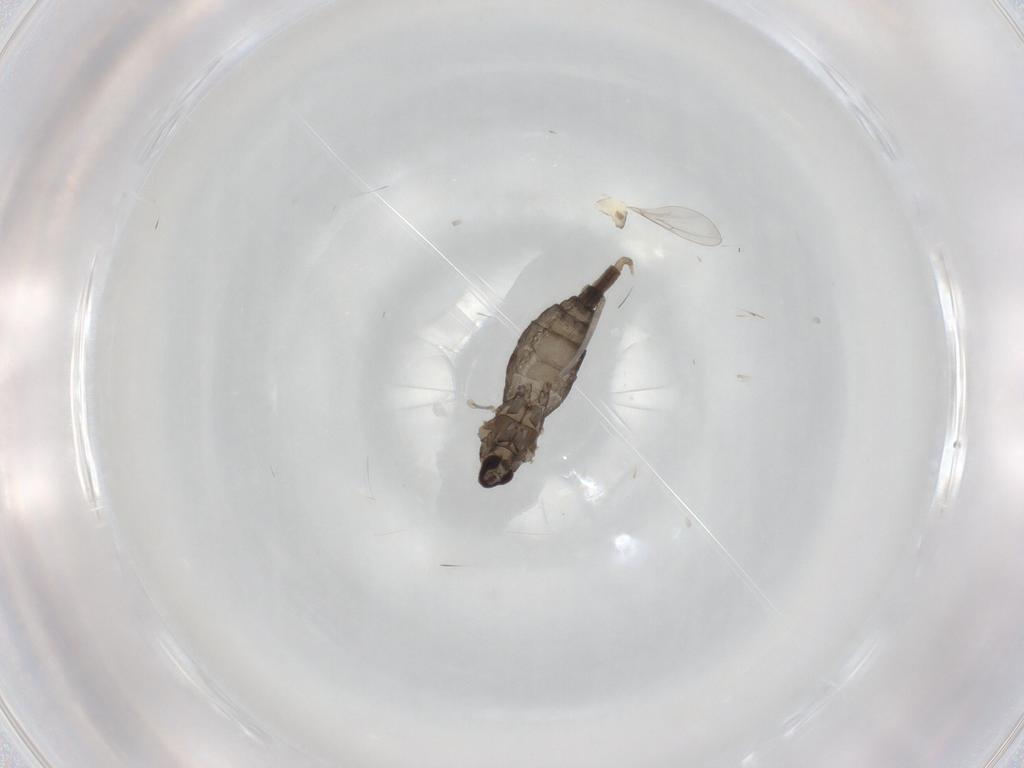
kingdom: Animalia
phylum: Arthropoda
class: Insecta
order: Diptera
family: Cecidomyiidae
